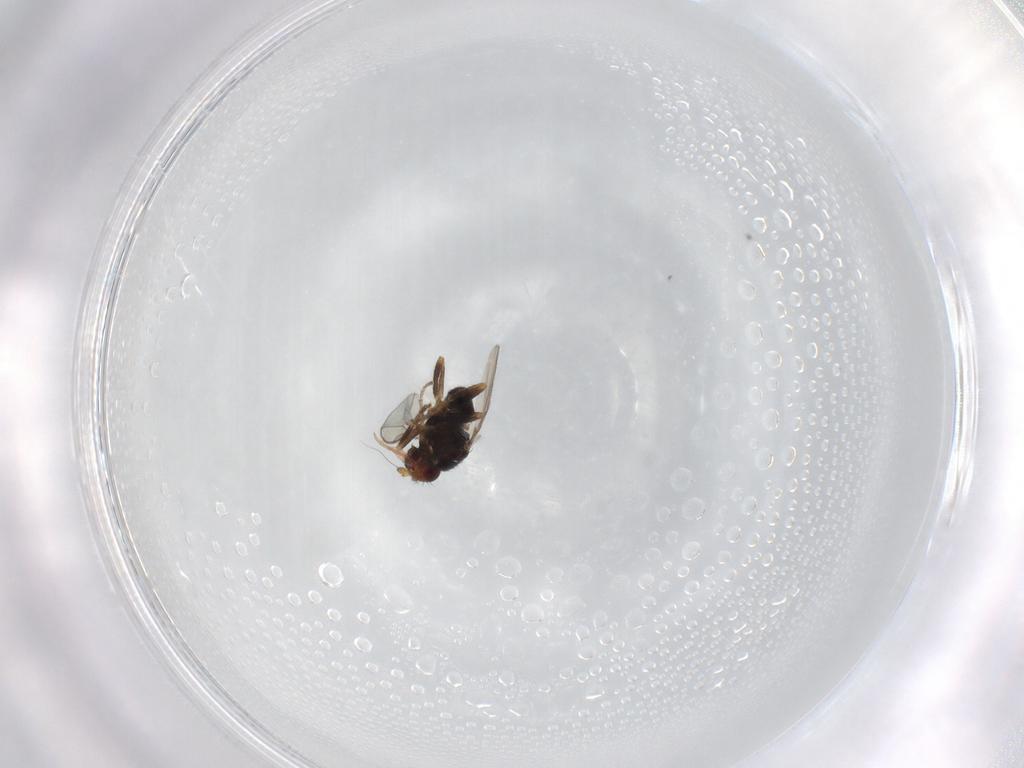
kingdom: Animalia
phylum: Arthropoda
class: Insecta
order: Diptera
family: Sphaeroceridae
